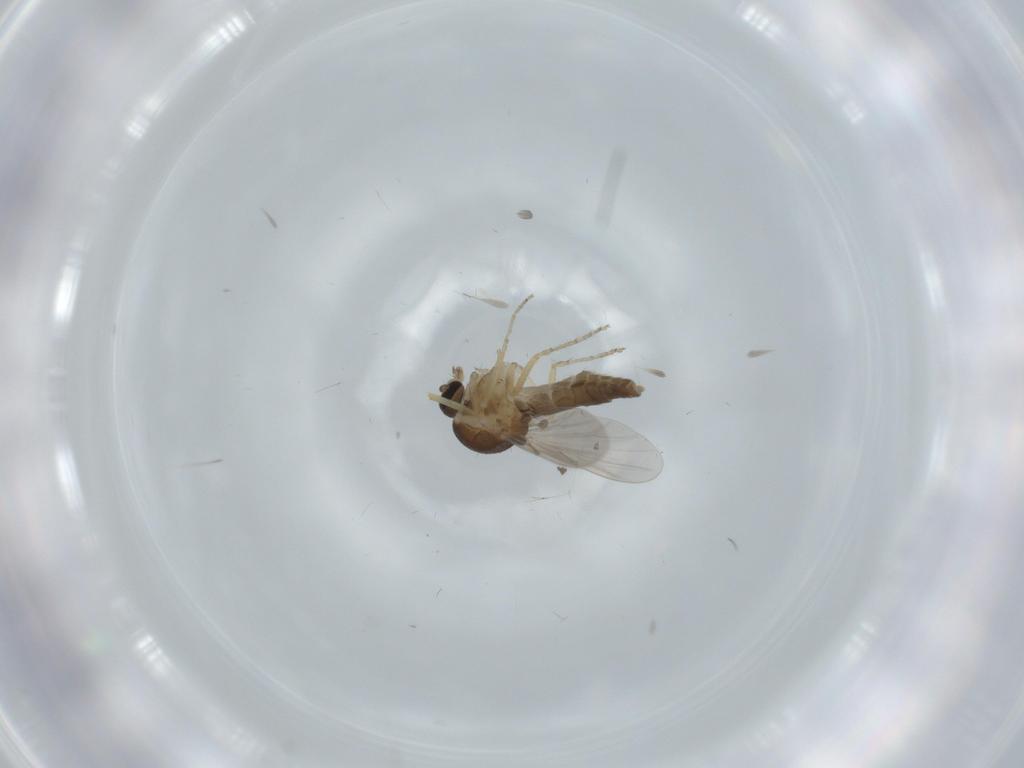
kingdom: Animalia
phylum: Arthropoda
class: Insecta
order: Diptera
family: Ceratopogonidae
